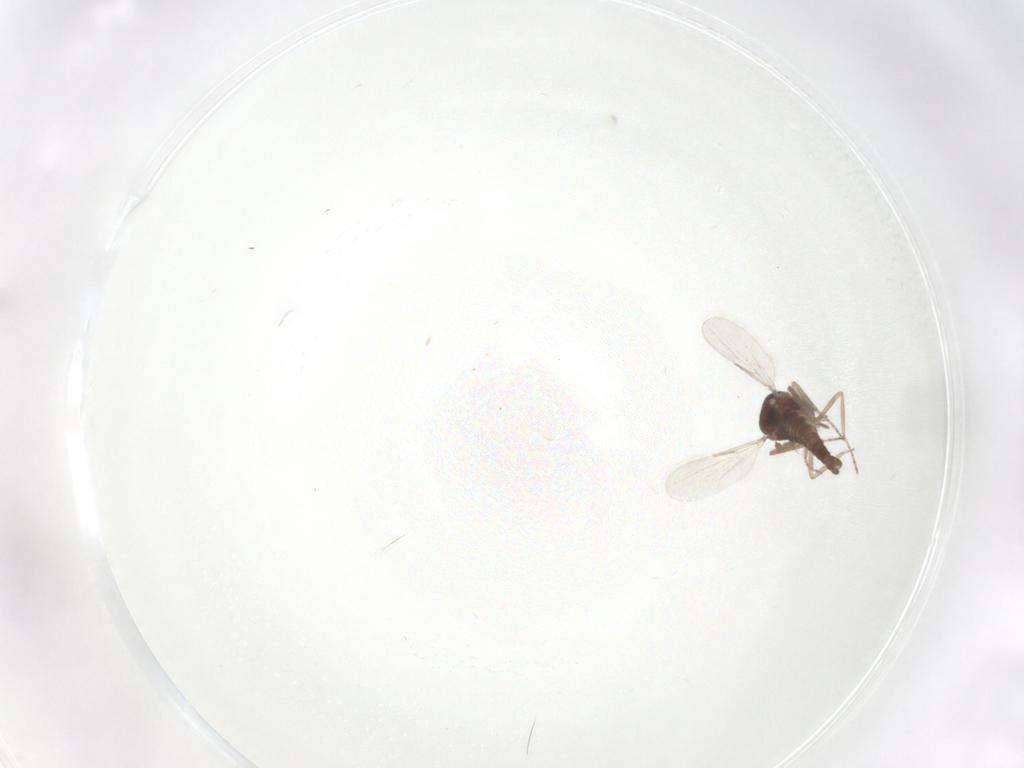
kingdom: Animalia
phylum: Arthropoda
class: Insecta
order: Diptera
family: Ceratopogonidae
